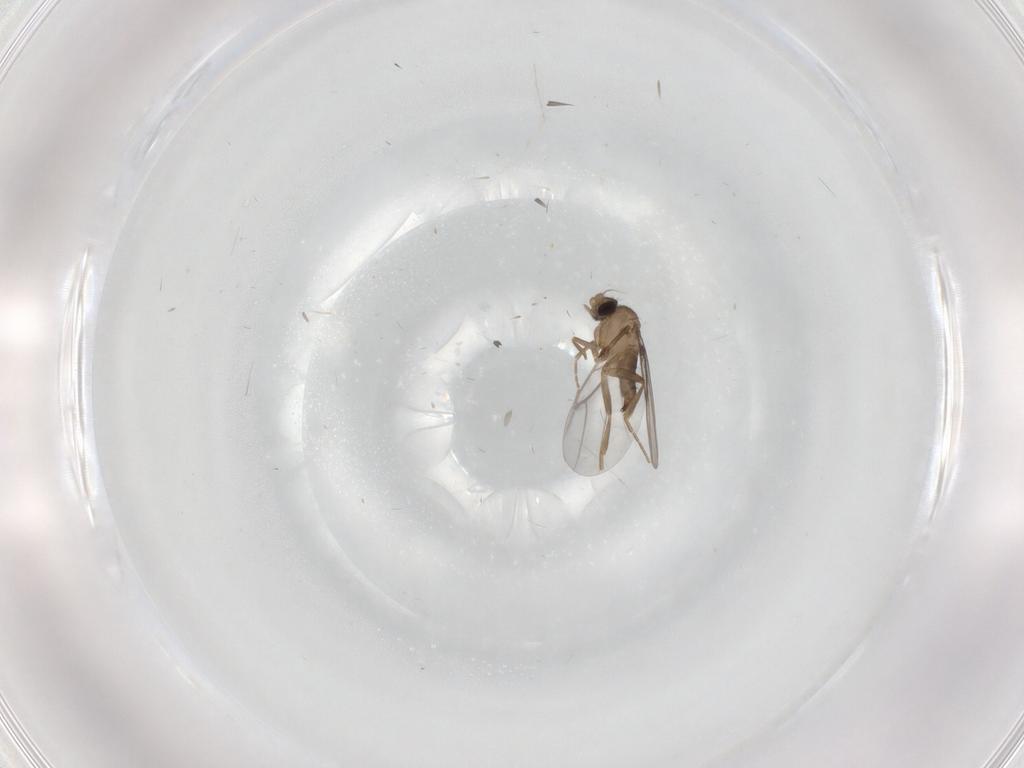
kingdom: Animalia
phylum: Arthropoda
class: Insecta
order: Diptera
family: Cecidomyiidae
